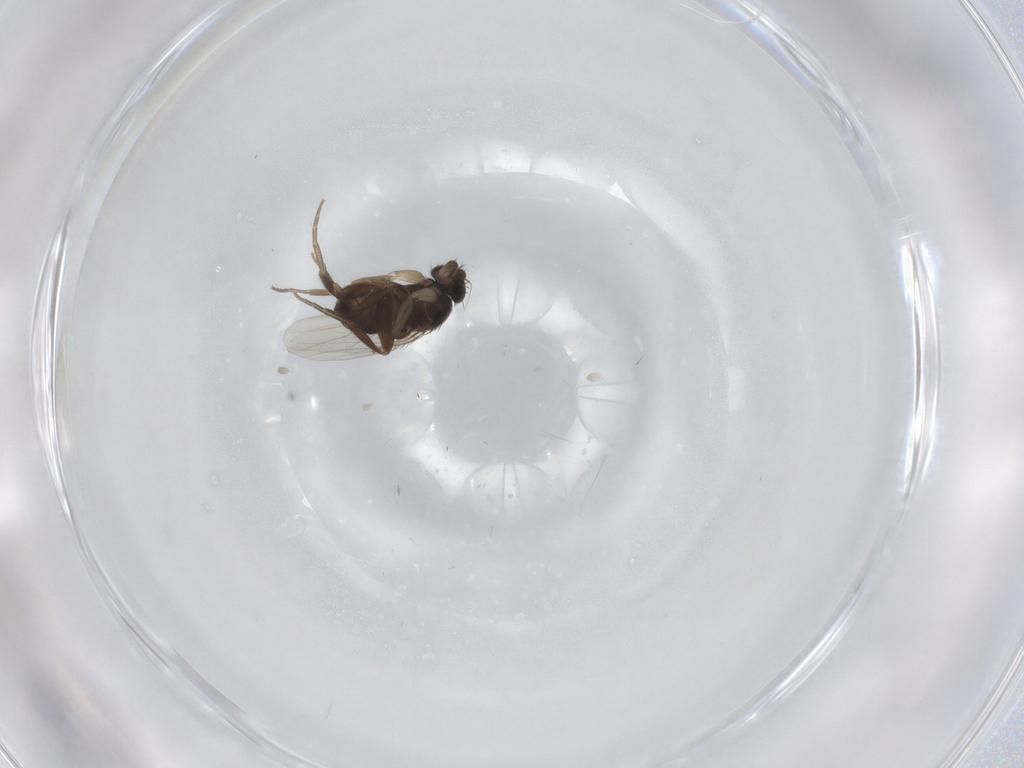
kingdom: Animalia
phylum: Arthropoda
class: Insecta
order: Diptera
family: Phoridae
